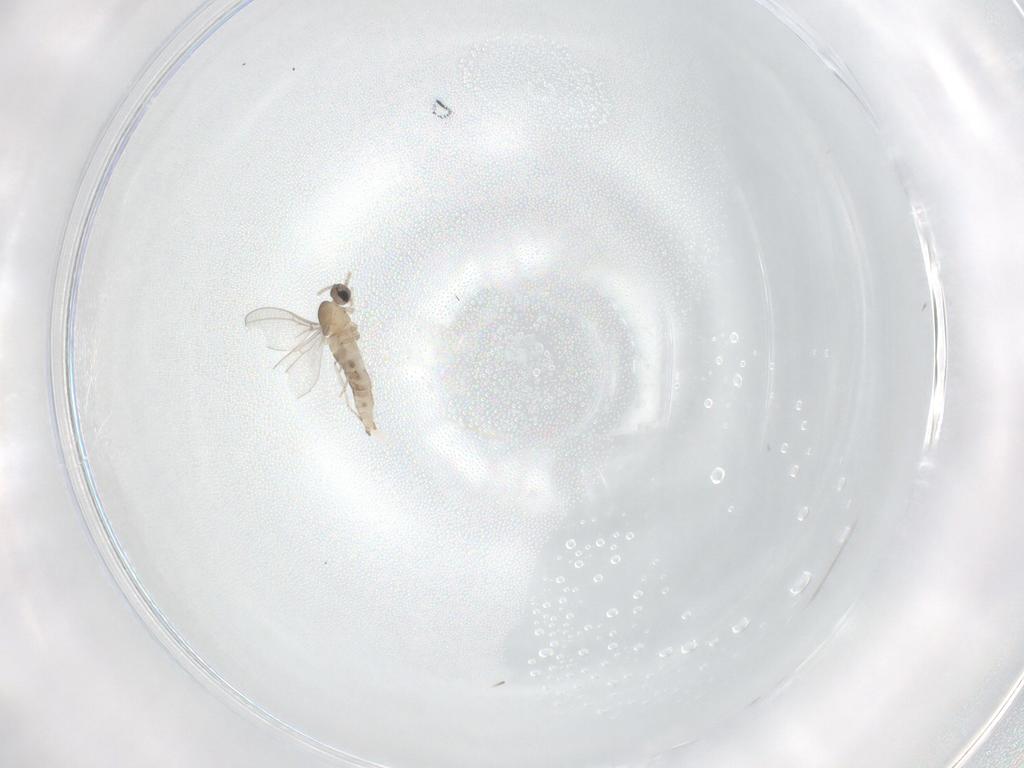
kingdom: Animalia
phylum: Arthropoda
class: Insecta
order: Diptera
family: Cecidomyiidae
